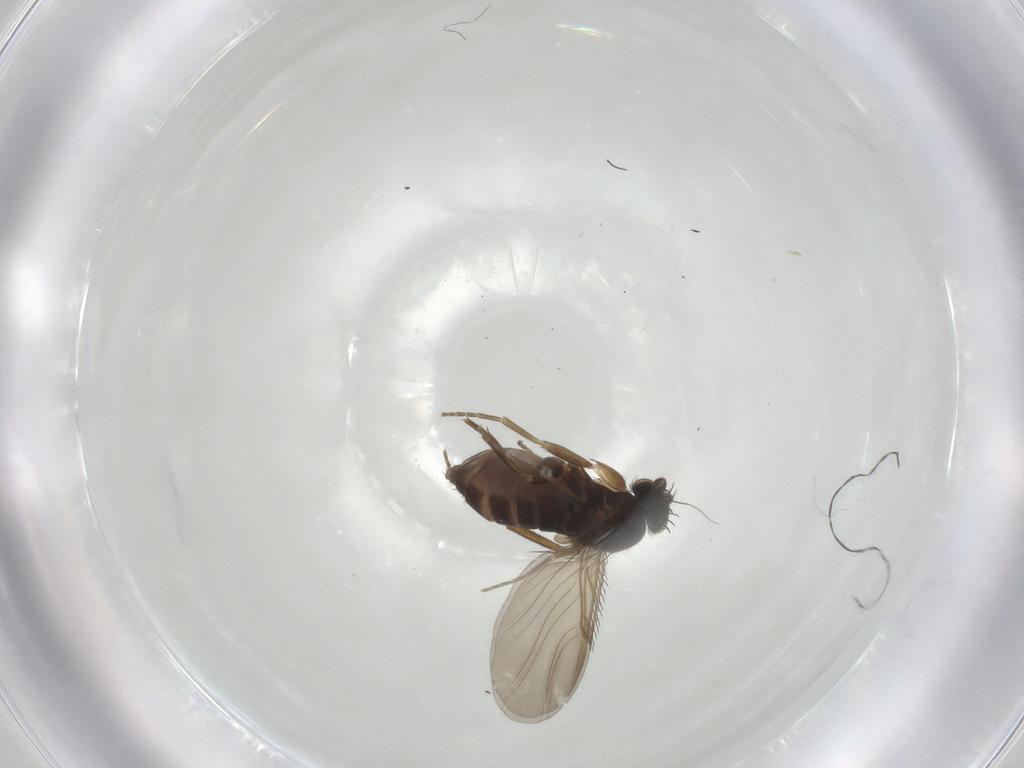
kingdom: Animalia
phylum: Arthropoda
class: Insecta
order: Diptera
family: Phoridae
